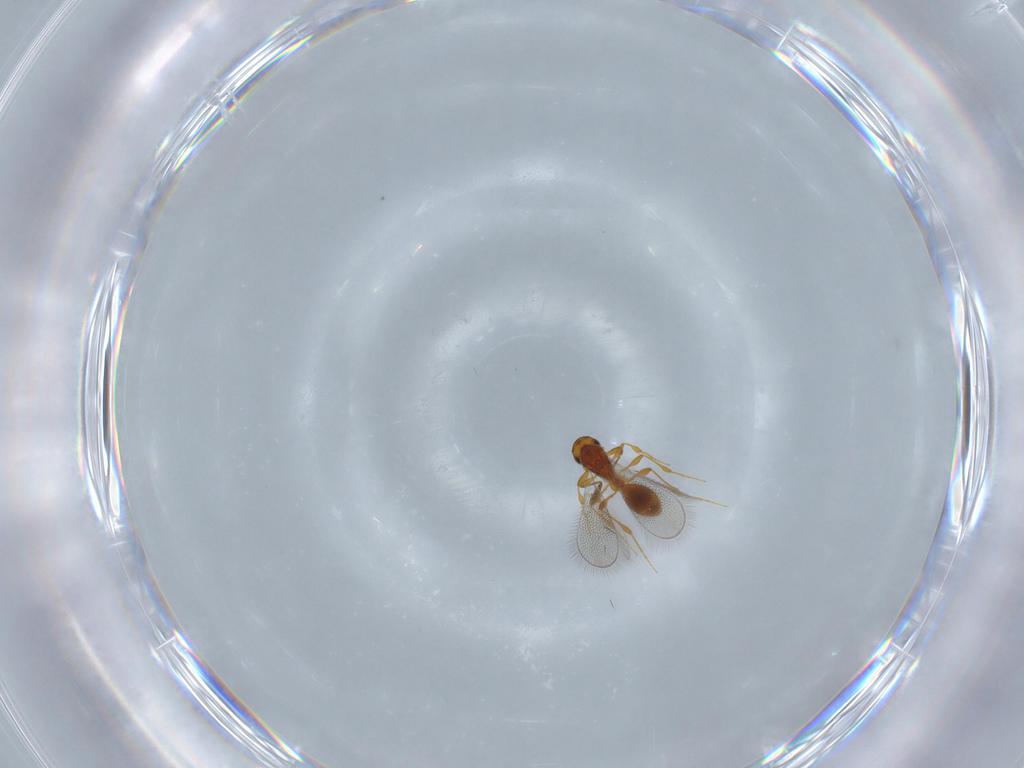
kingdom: Animalia
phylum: Arthropoda
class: Insecta
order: Hymenoptera
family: Platygastridae
